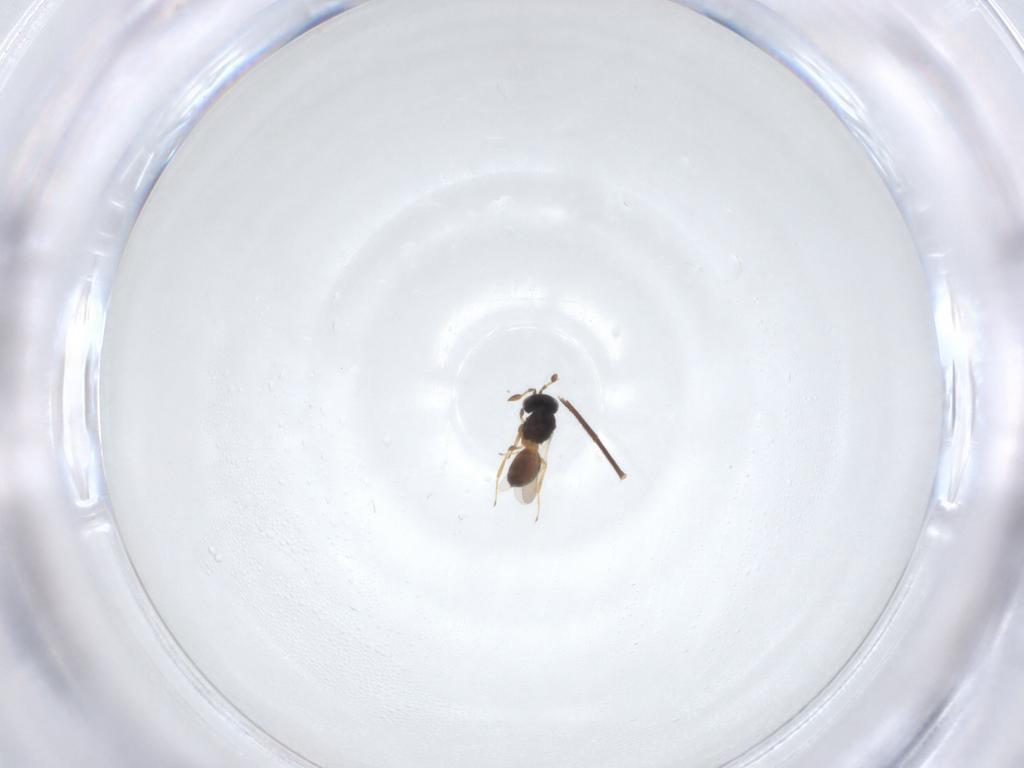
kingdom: Animalia
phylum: Arthropoda
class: Insecta
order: Hymenoptera
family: Scelionidae
